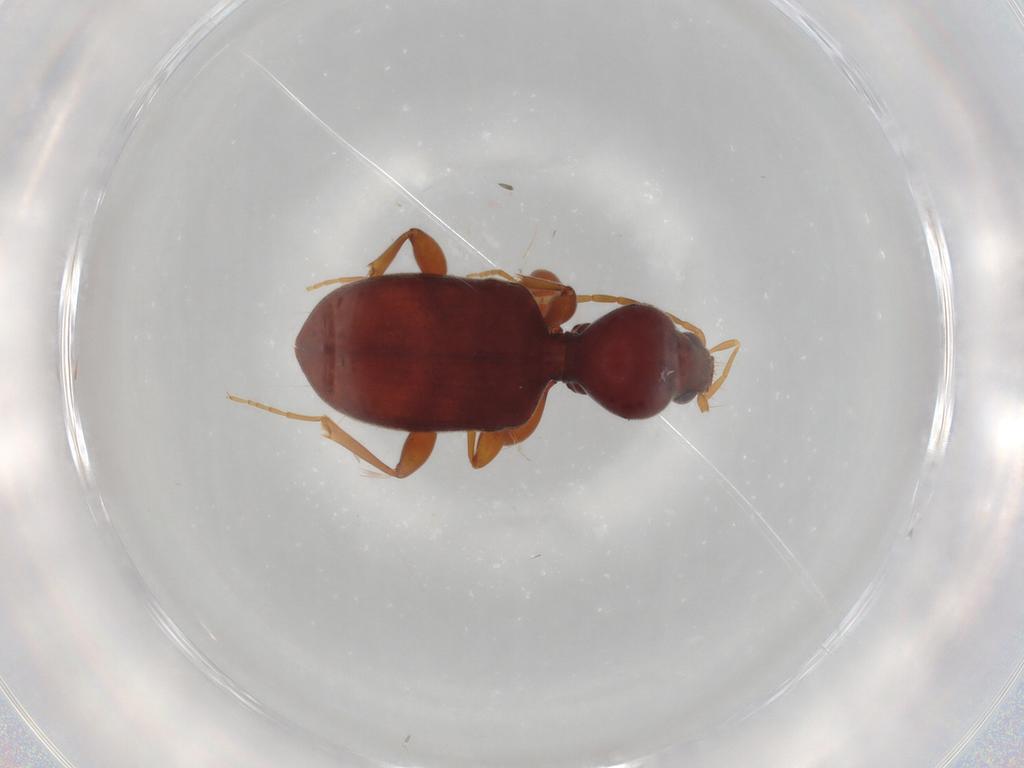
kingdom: Animalia
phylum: Arthropoda
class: Insecta
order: Coleoptera
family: Carabidae
